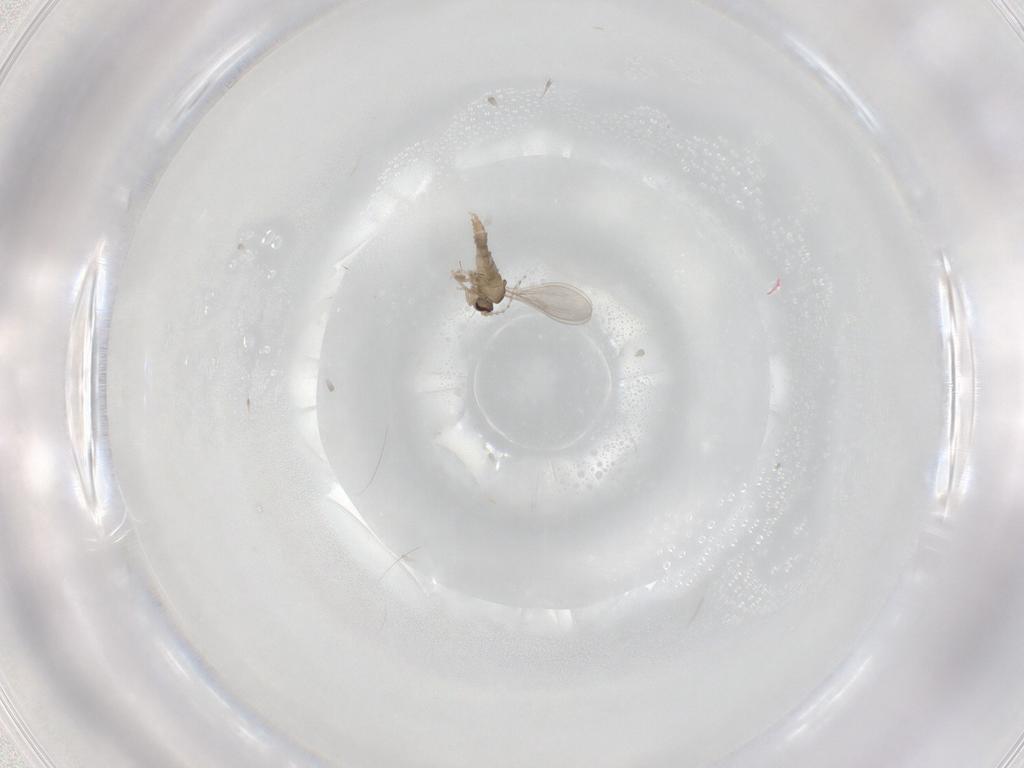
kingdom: Animalia
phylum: Arthropoda
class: Insecta
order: Diptera
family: Cecidomyiidae
